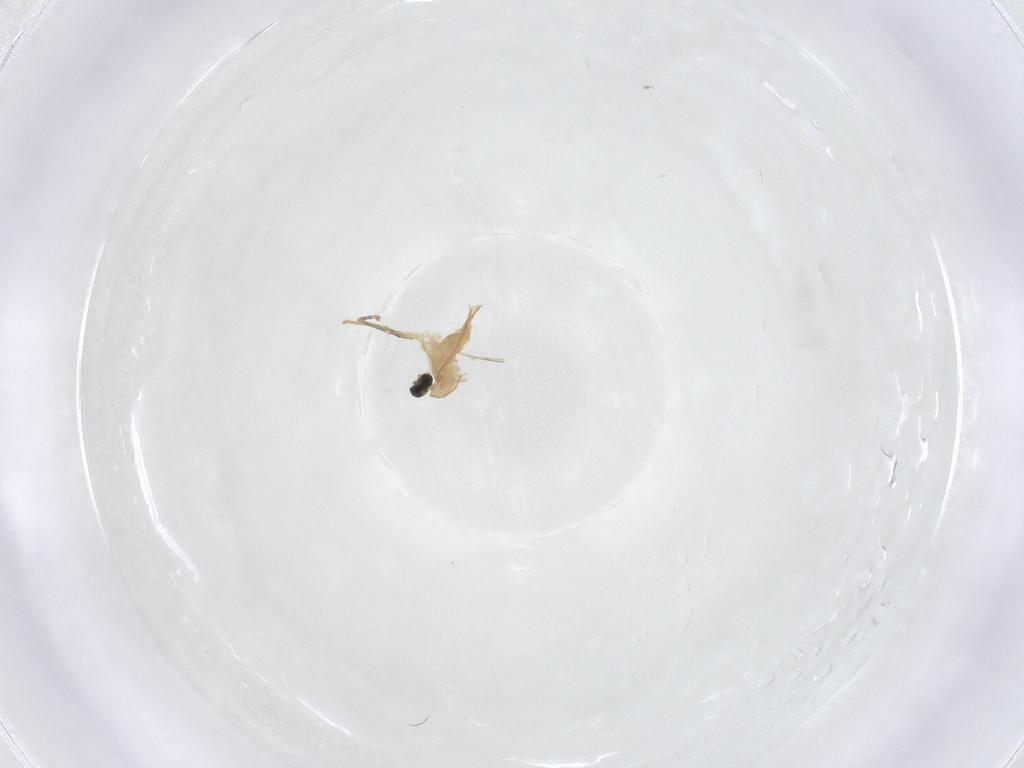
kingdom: Animalia
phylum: Arthropoda
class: Insecta
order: Diptera
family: Cecidomyiidae
